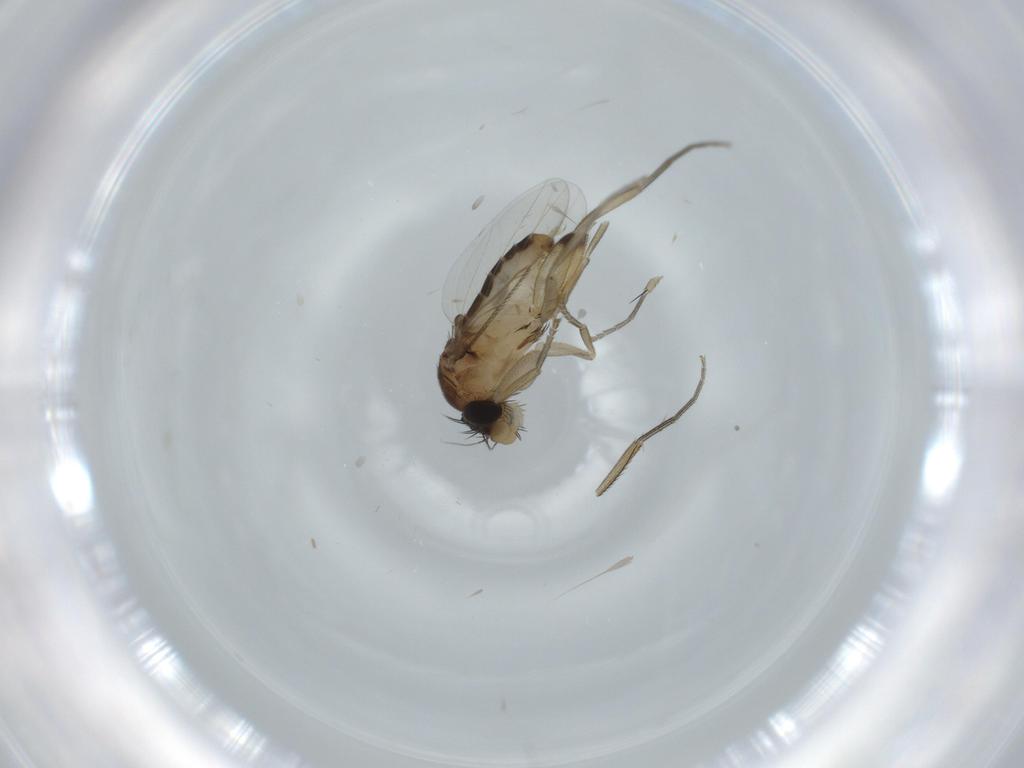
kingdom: Animalia
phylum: Arthropoda
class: Insecta
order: Diptera
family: Phoridae
